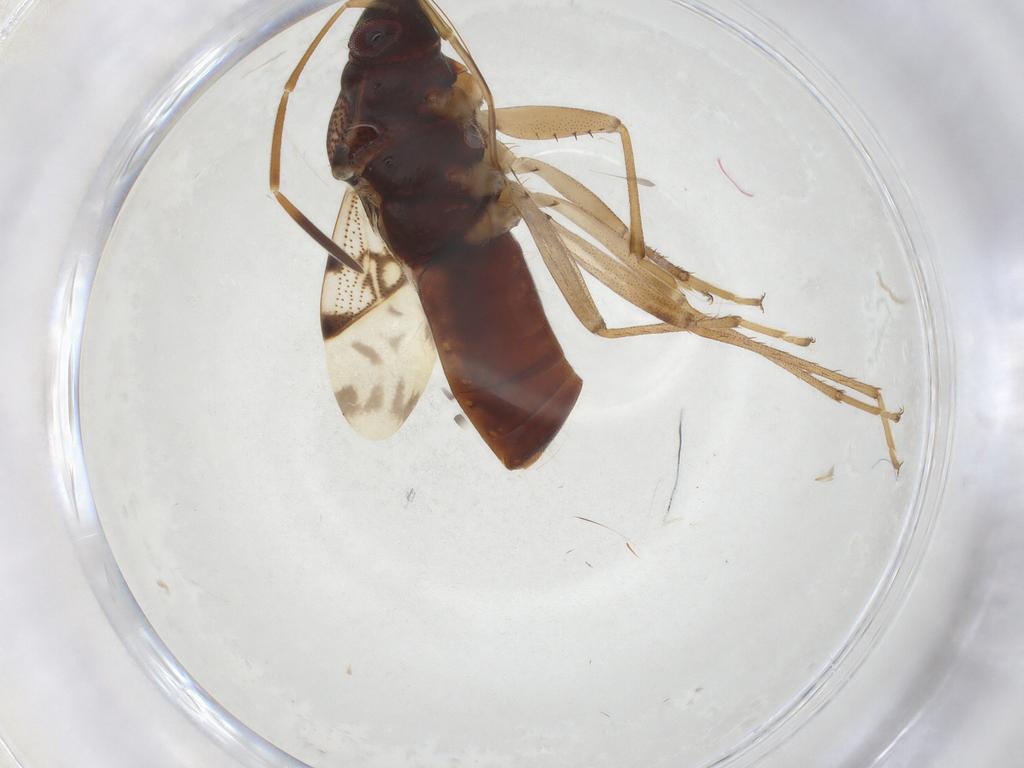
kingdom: Animalia
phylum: Arthropoda
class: Insecta
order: Hemiptera
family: Rhyparochromidae
